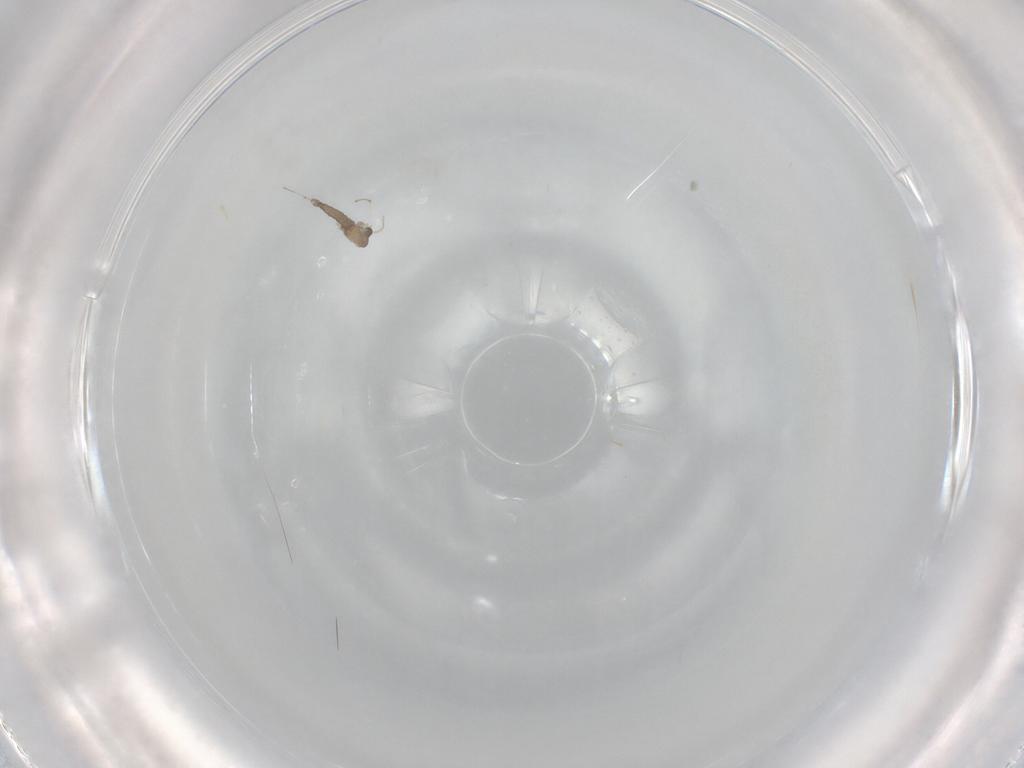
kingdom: Animalia
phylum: Arthropoda
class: Insecta
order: Diptera
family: Cecidomyiidae
